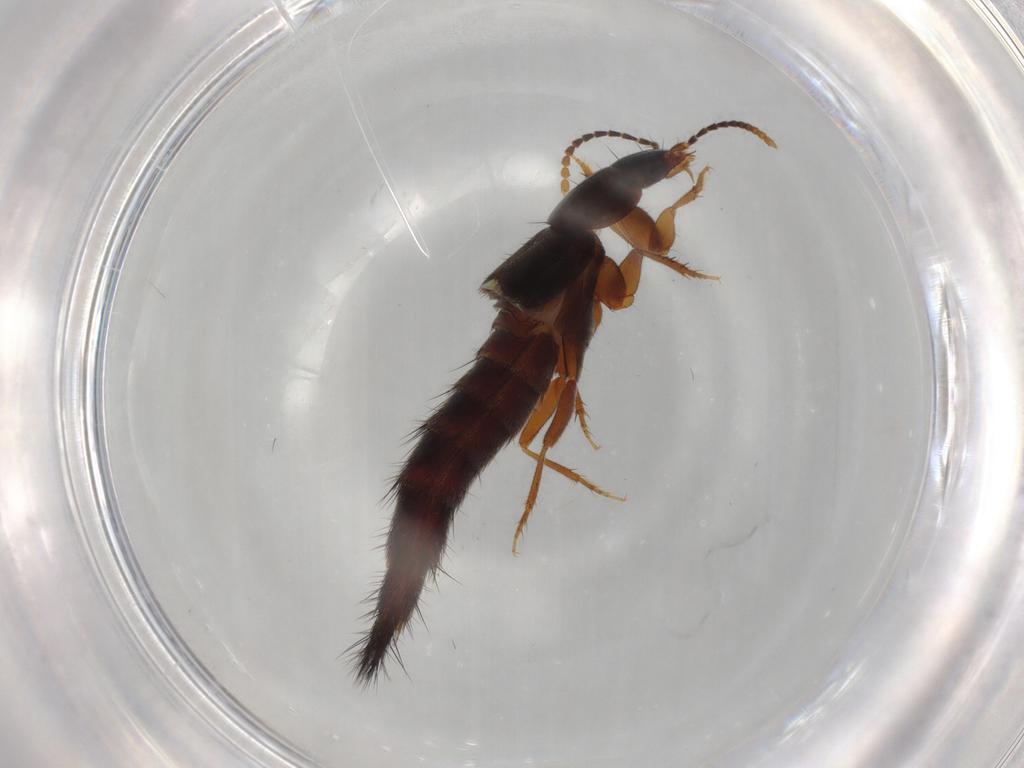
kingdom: Animalia
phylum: Arthropoda
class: Insecta
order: Coleoptera
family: Staphylinidae
